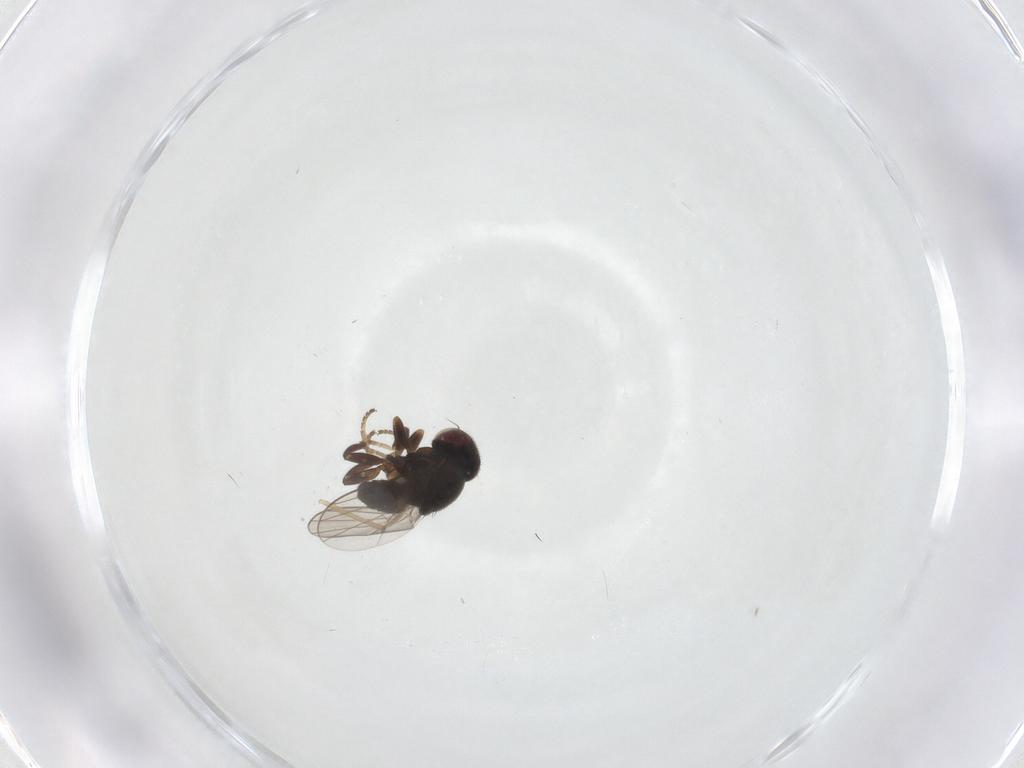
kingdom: Animalia
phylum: Arthropoda
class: Insecta
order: Diptera
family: Chloropidae
